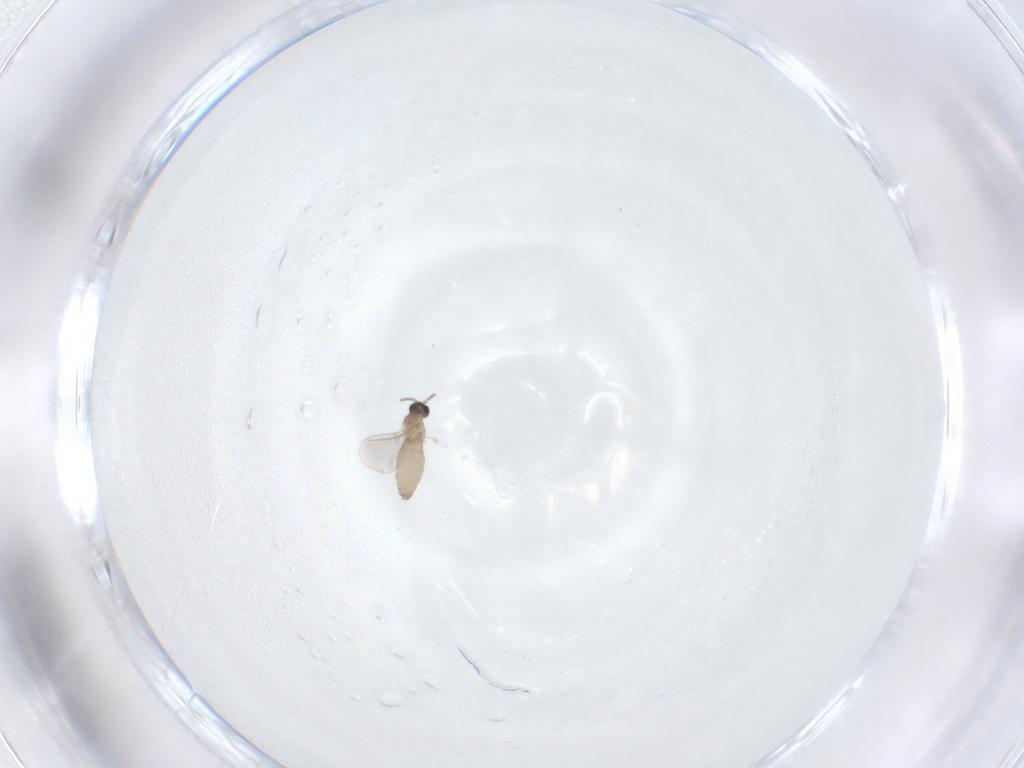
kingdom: Animalia
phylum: Arthropoda
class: Insecta
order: Diptera
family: Cecidomyiidae
